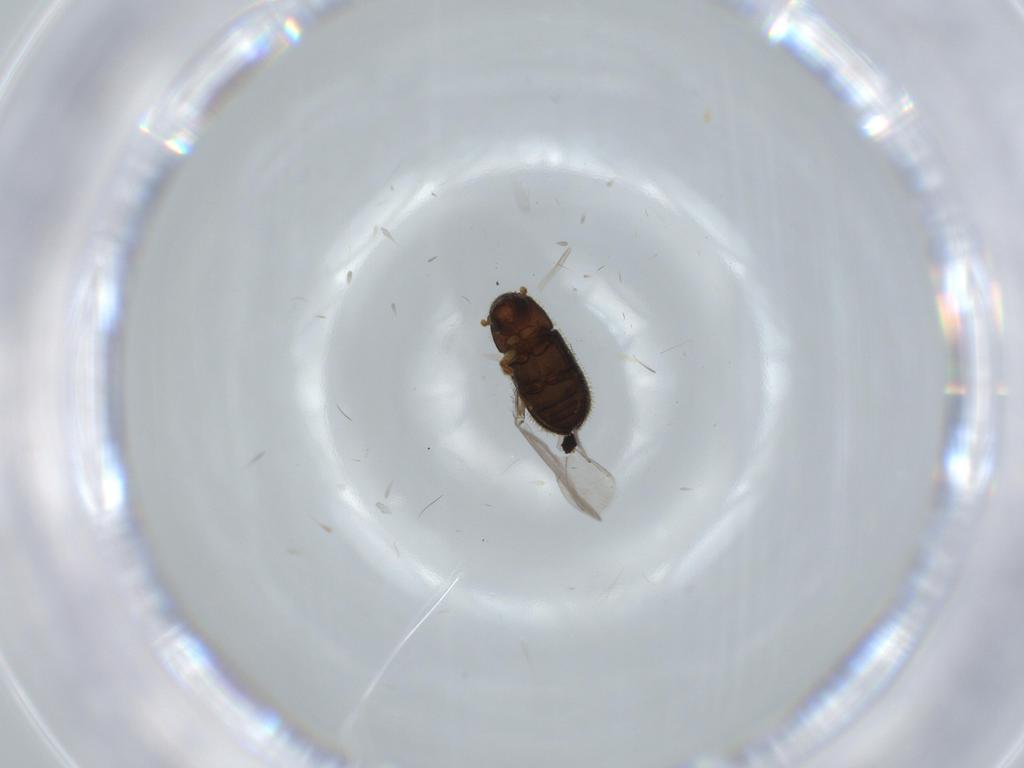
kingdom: Animalia
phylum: Arthropoda
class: Insecta
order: Coleoptera
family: Curculionidae
